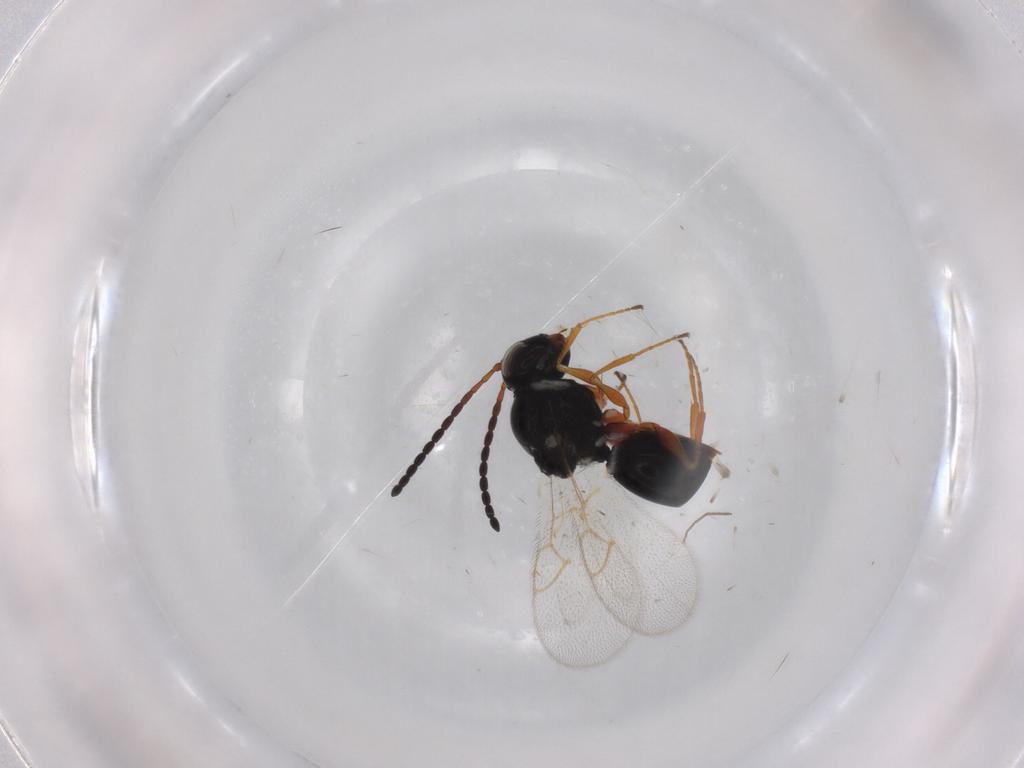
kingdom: Animalia
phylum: Arthropoda
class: Insecta
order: Hymenoptera
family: Figitidae
